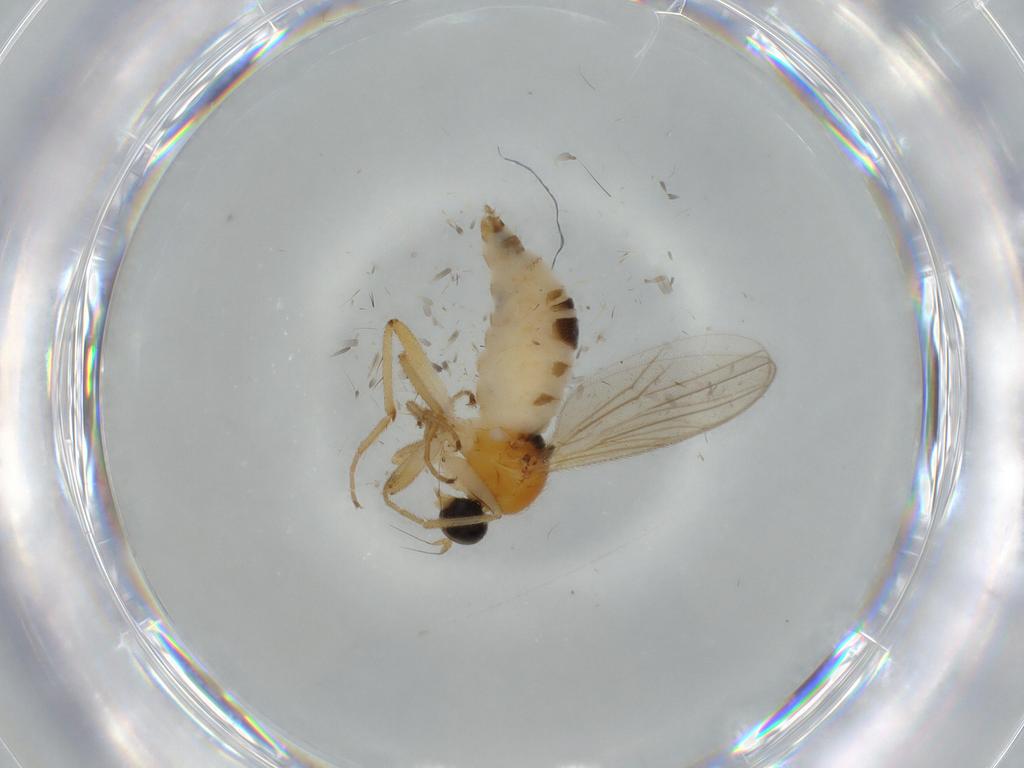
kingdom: Animalia
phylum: Arthropoda
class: Insecta
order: Diptera
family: Hybotidae
